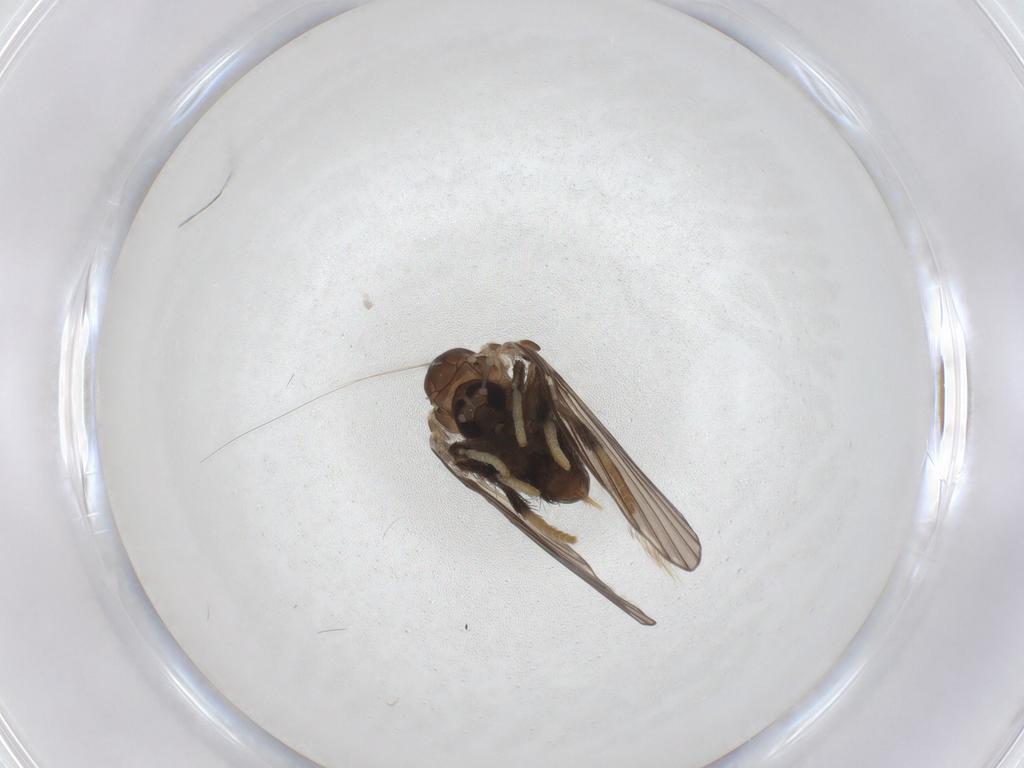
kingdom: Animalia
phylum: Arthropoda
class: Insecta
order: Diptera
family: Psychodidae
